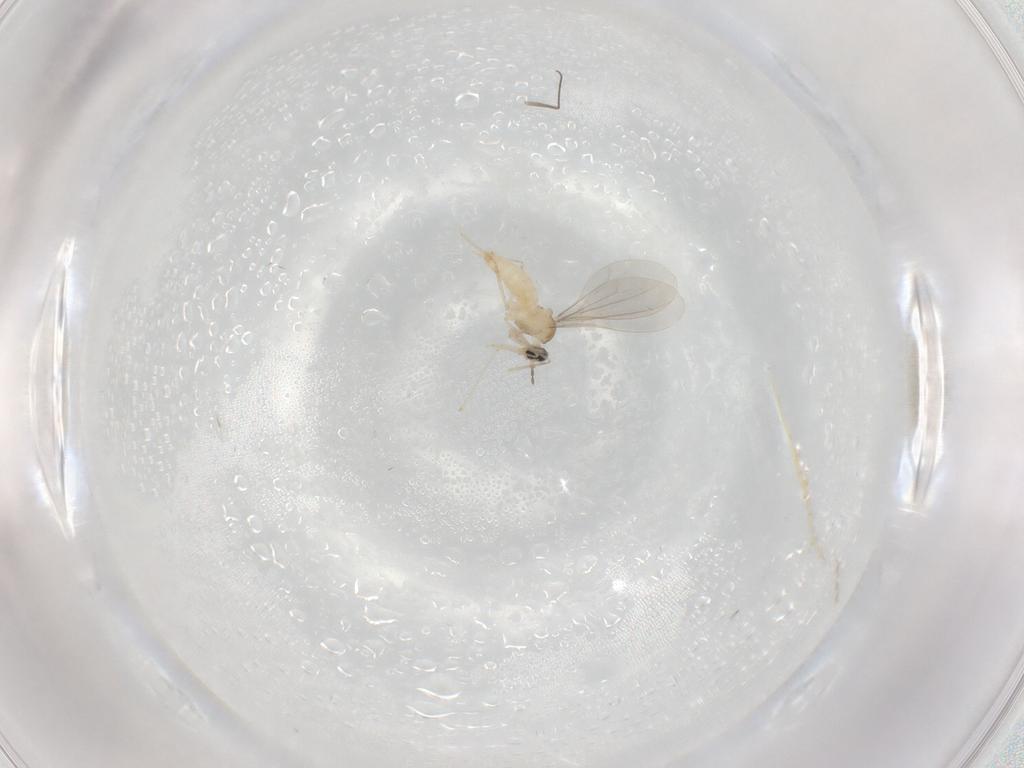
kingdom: Animalia
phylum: Arthropoda
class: Insecta
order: Diptera
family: Cecidomyiidae
